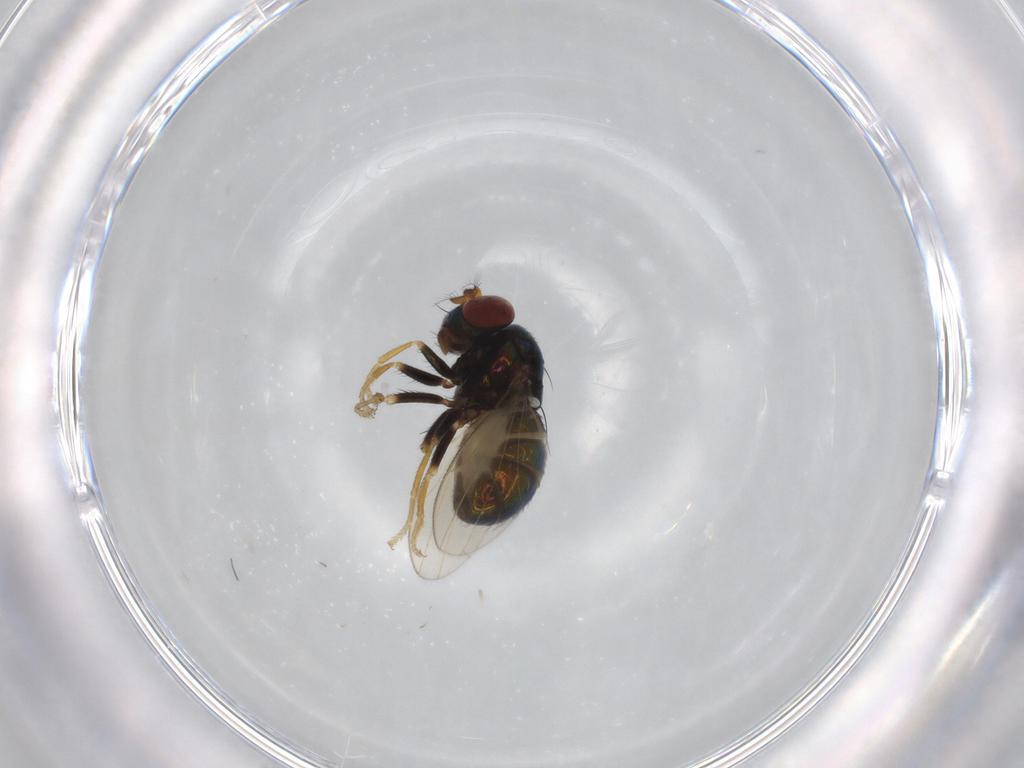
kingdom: Animalia
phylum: Arthropoda
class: Insecta
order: Diptera
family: Ephydridae
